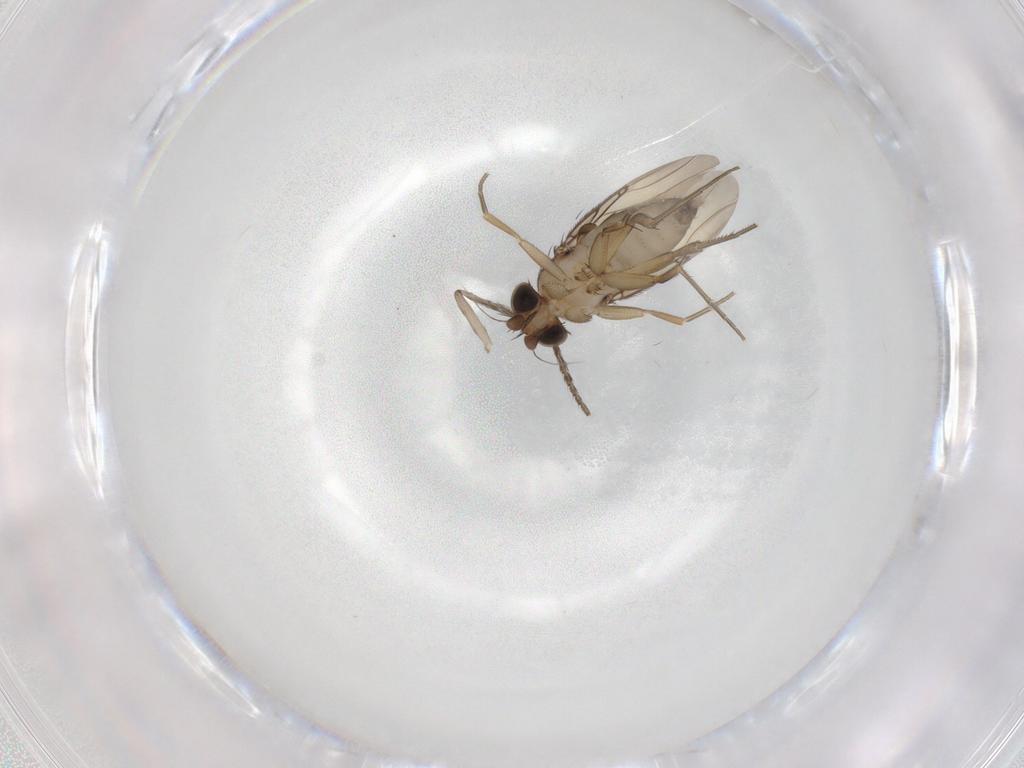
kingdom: Animalia
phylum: Arthropoda
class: Insecta
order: Diptera
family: Phoridae
